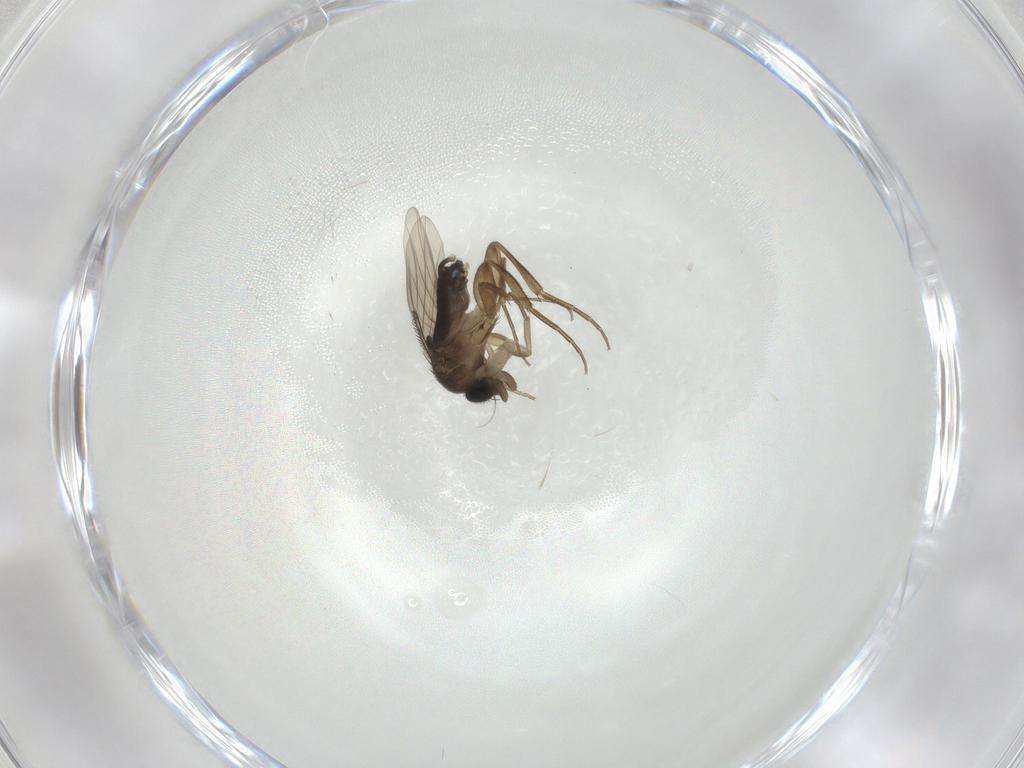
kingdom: Animalia
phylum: Arthropoda
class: Insecta
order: Diptera
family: Phoridae
